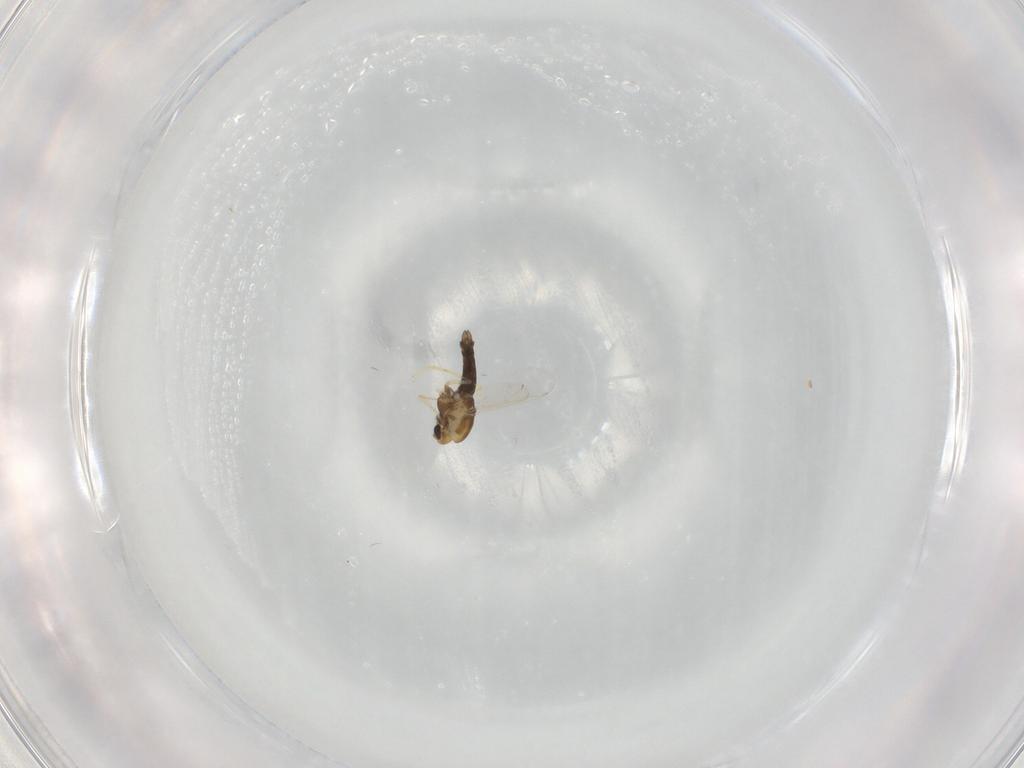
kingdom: Animalia
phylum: Arthropoda
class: Insecta
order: Diptera
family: Chironomidae
